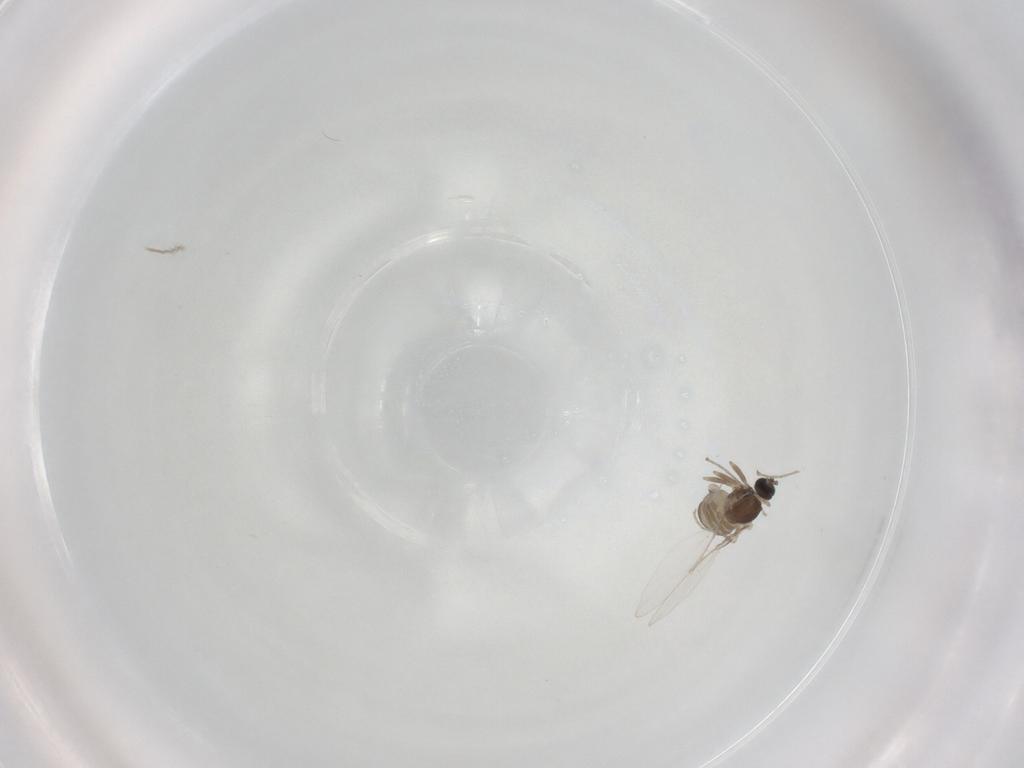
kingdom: Animalia
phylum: Arthropoda
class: Insecta
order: Diptera
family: Cecidomyiidae
